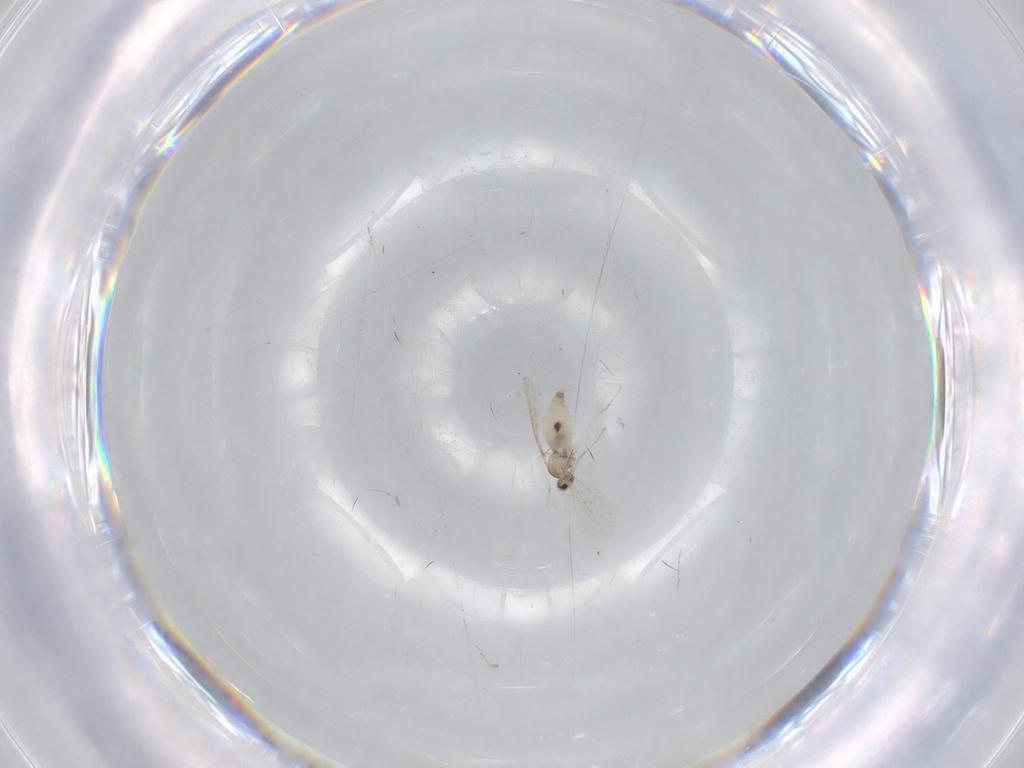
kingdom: Animalia
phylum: Arthropoda
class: Insecta
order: Diptera
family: Cecidomyiidae
